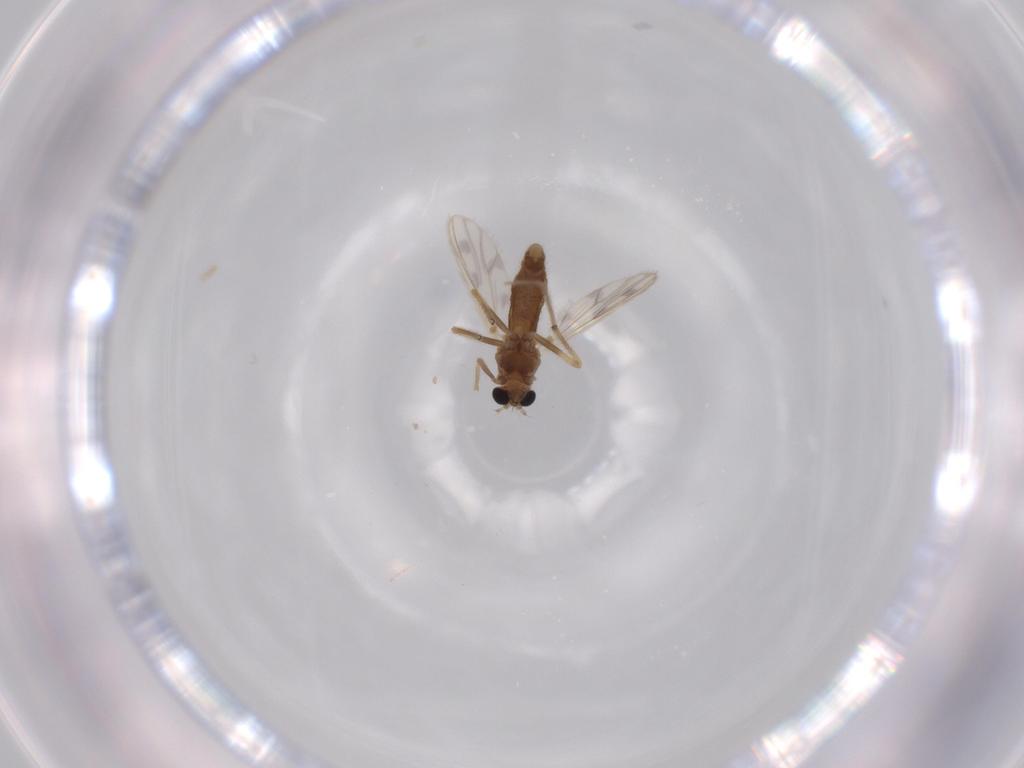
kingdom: Animalia
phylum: Arthropoda
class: Insecta
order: Diptera
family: Chironomidae
